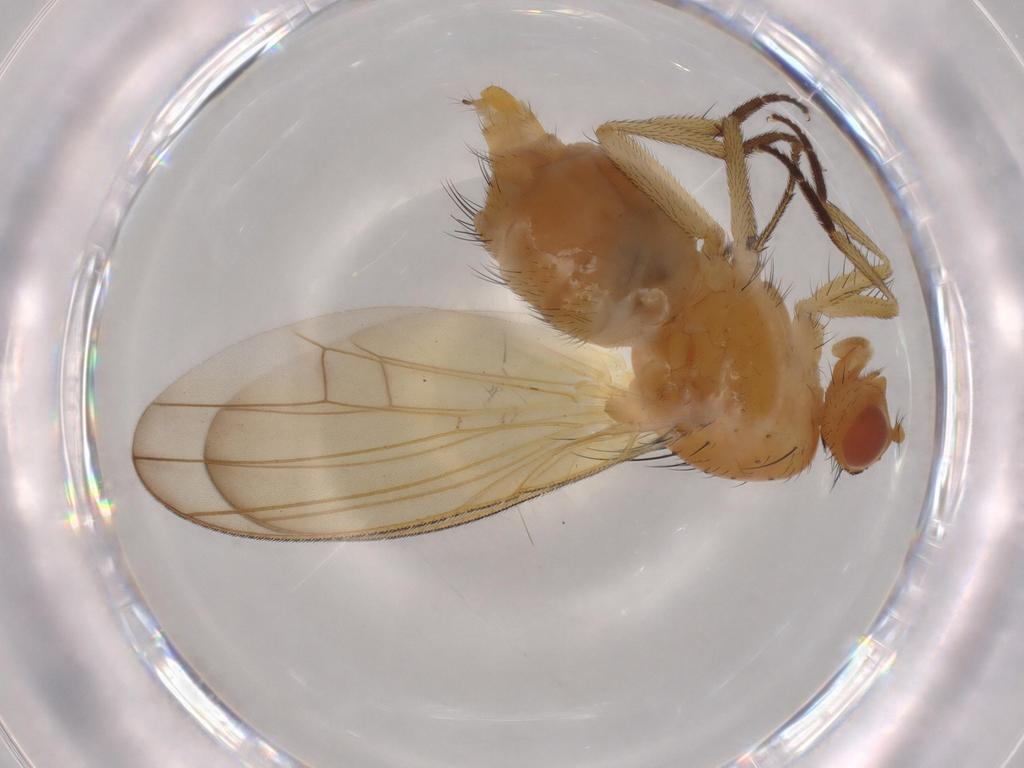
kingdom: Animalia
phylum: Arthropoda
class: Insecta
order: Diptera
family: Lauxaniidae
